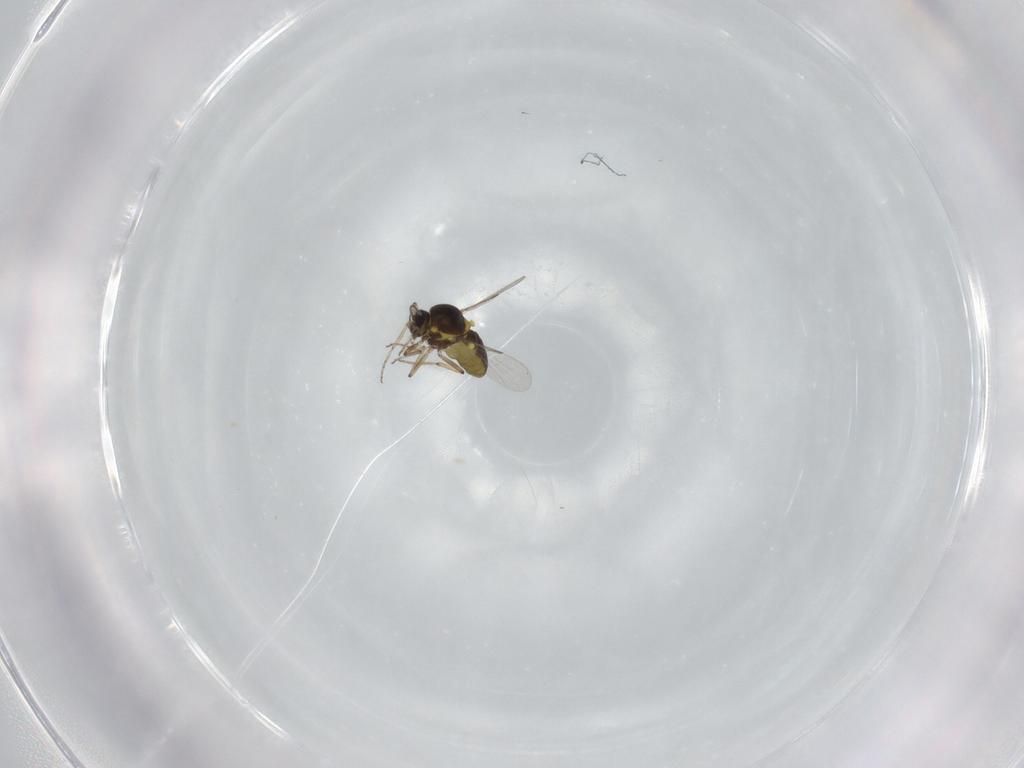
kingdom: Animalia
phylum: Arthropoda
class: Insecta
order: Diptera
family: Ceratopogonidae
